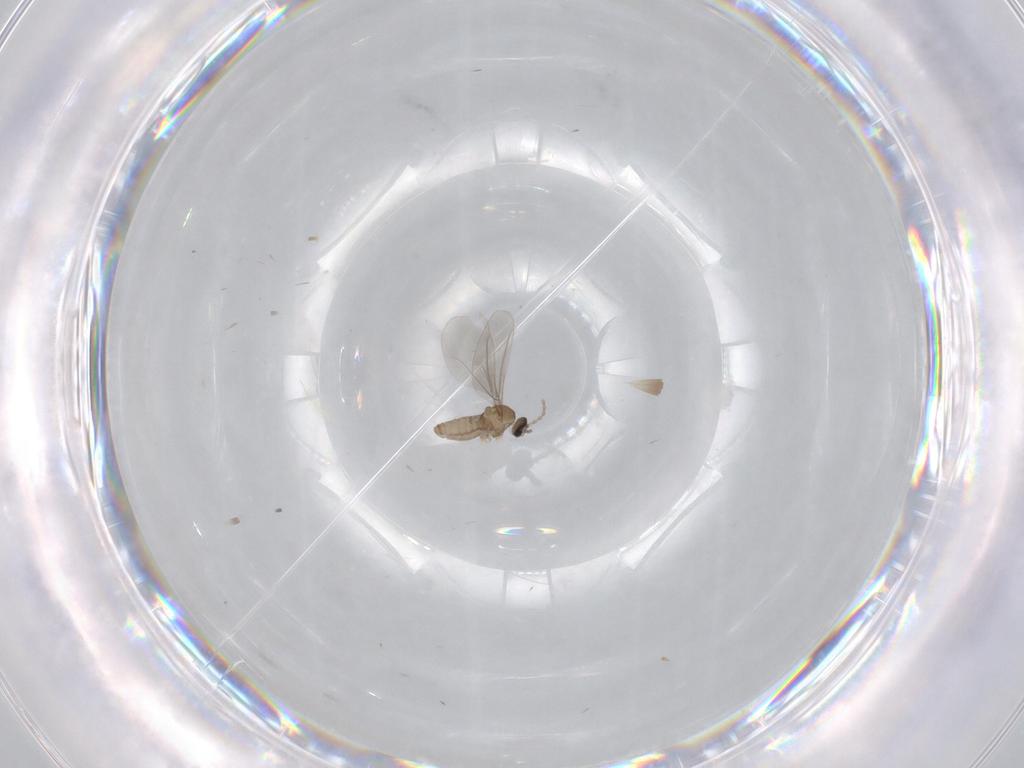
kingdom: Animalia
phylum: Arthropoda
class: Insecta
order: Diptera
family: Cecidomyiidae
